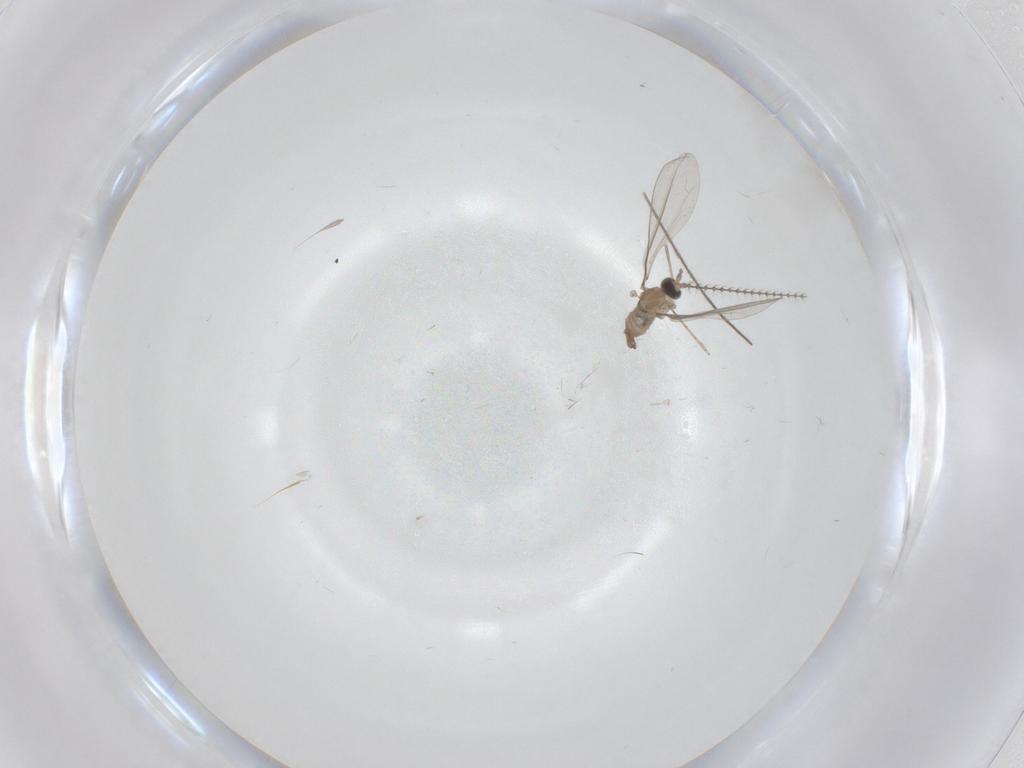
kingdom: Animalia
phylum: Arthropoda
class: Insecta
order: Diptera
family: Cecidomyiidae
